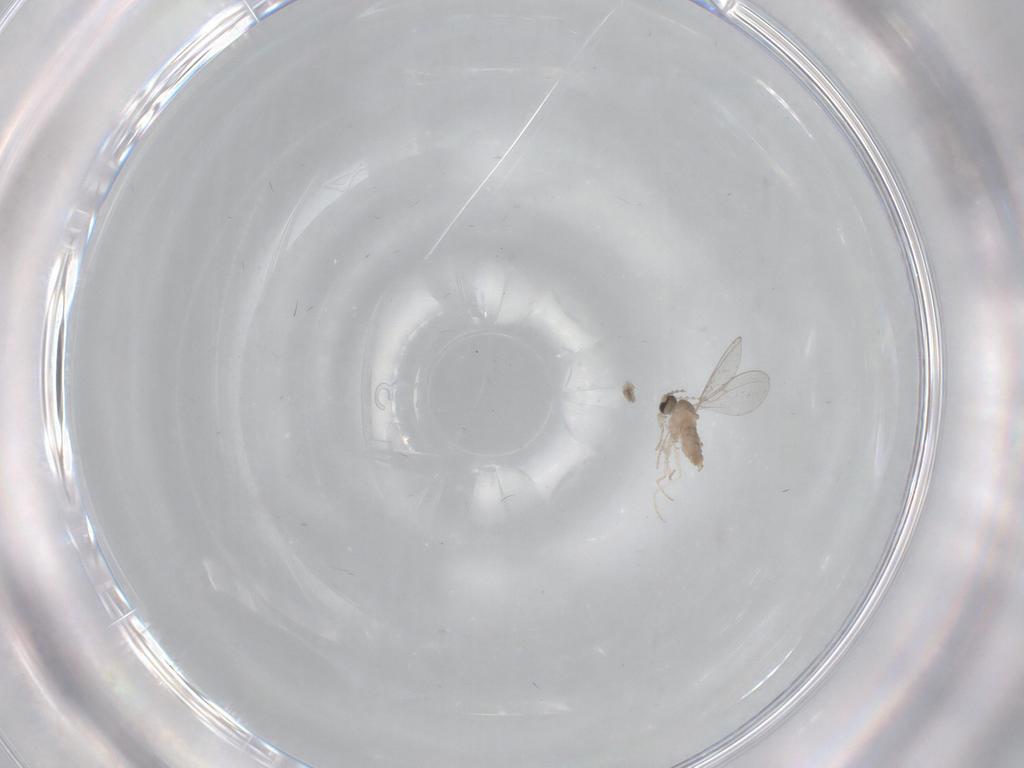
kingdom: Animalia
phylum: Arthropoda
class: Insecta
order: Diptera
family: Cecidomyiidae
